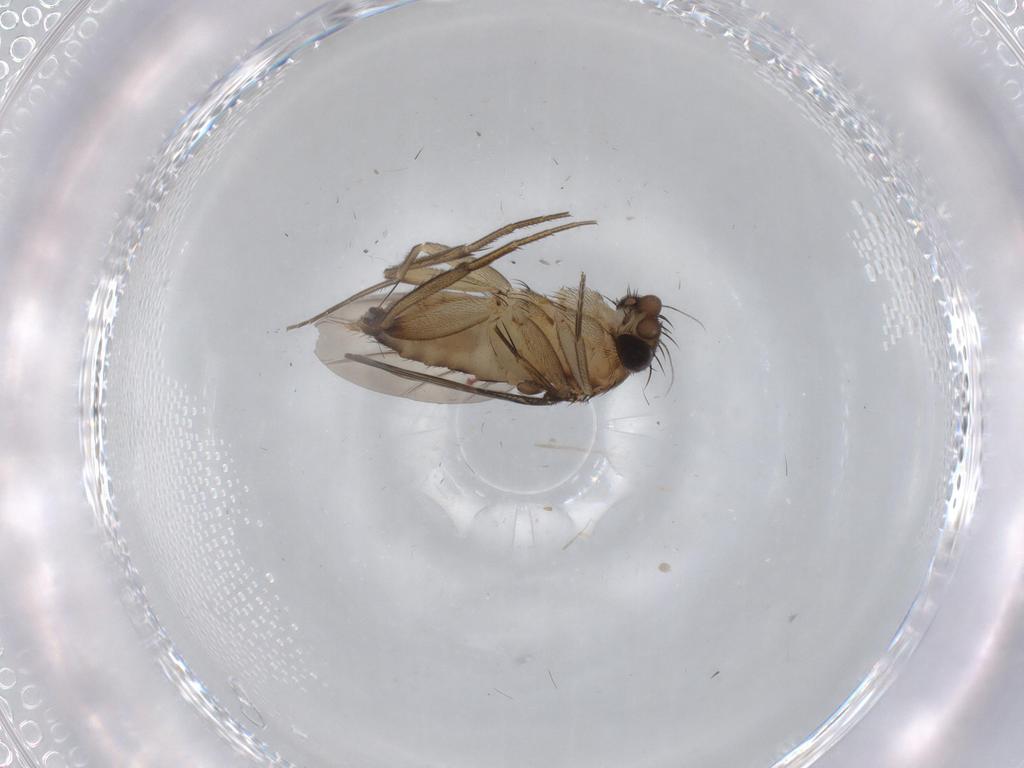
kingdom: Animalia
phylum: Arthropoda
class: Insecta
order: Diptera
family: Phoridae
